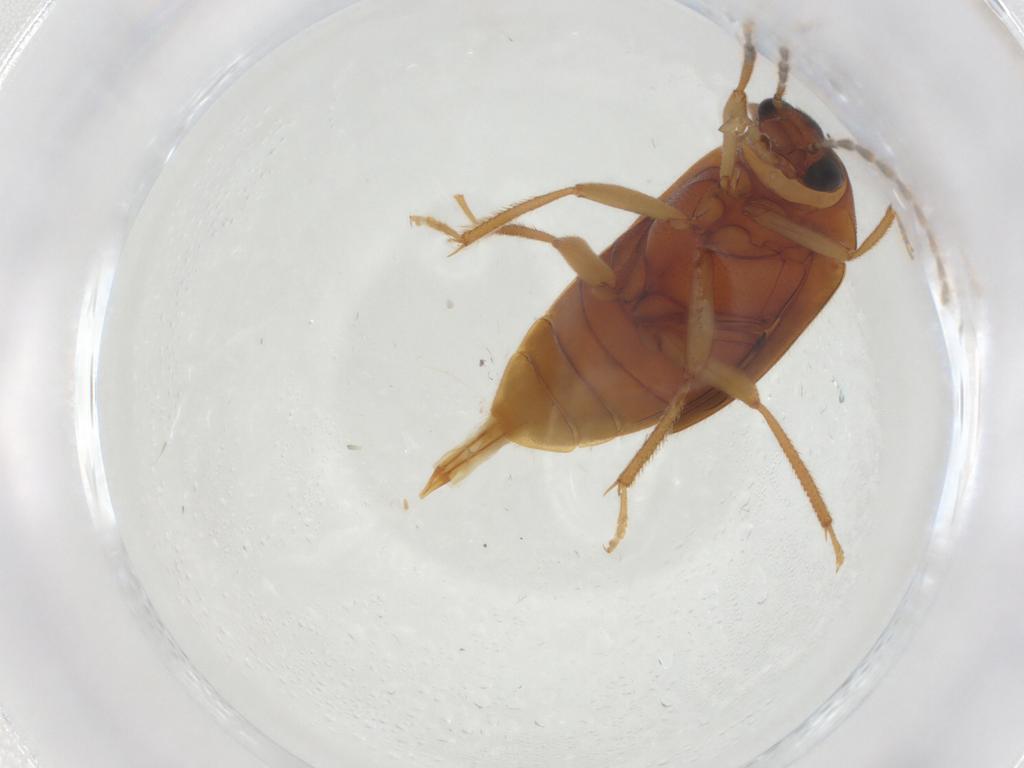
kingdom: Animalia
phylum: Arthropoda
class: Insecta
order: Coleoptera
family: Ptilodactylidae
